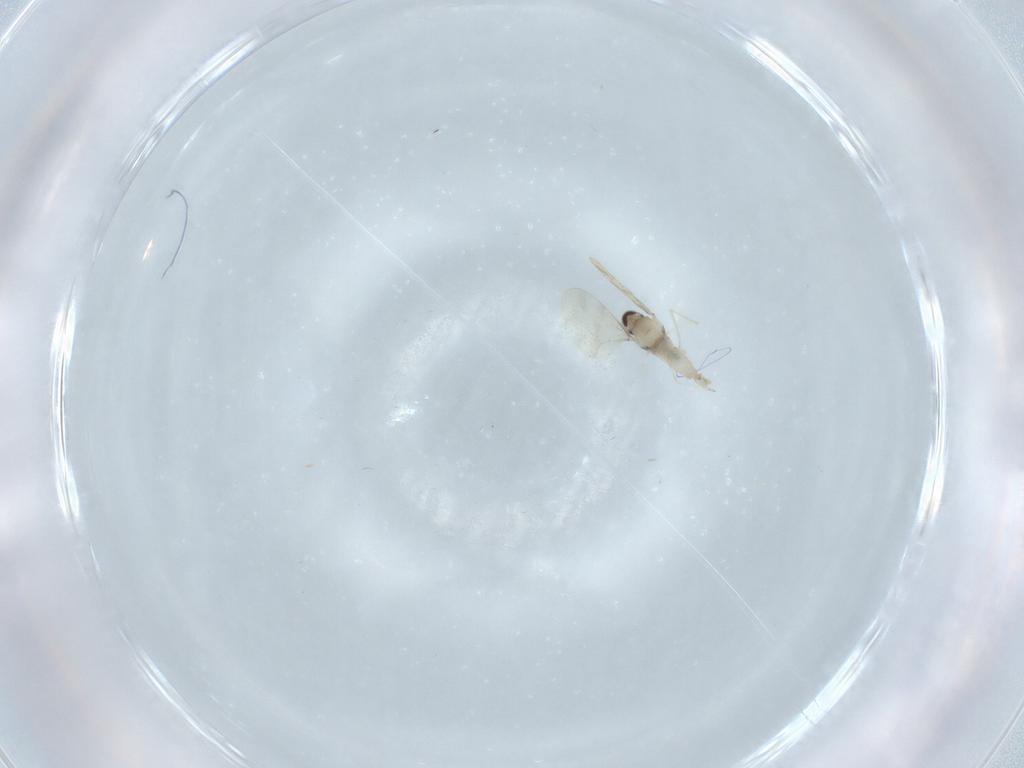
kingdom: Animalia
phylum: Arthropoda
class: Insecta
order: Diptera
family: Cecidomyiidae
